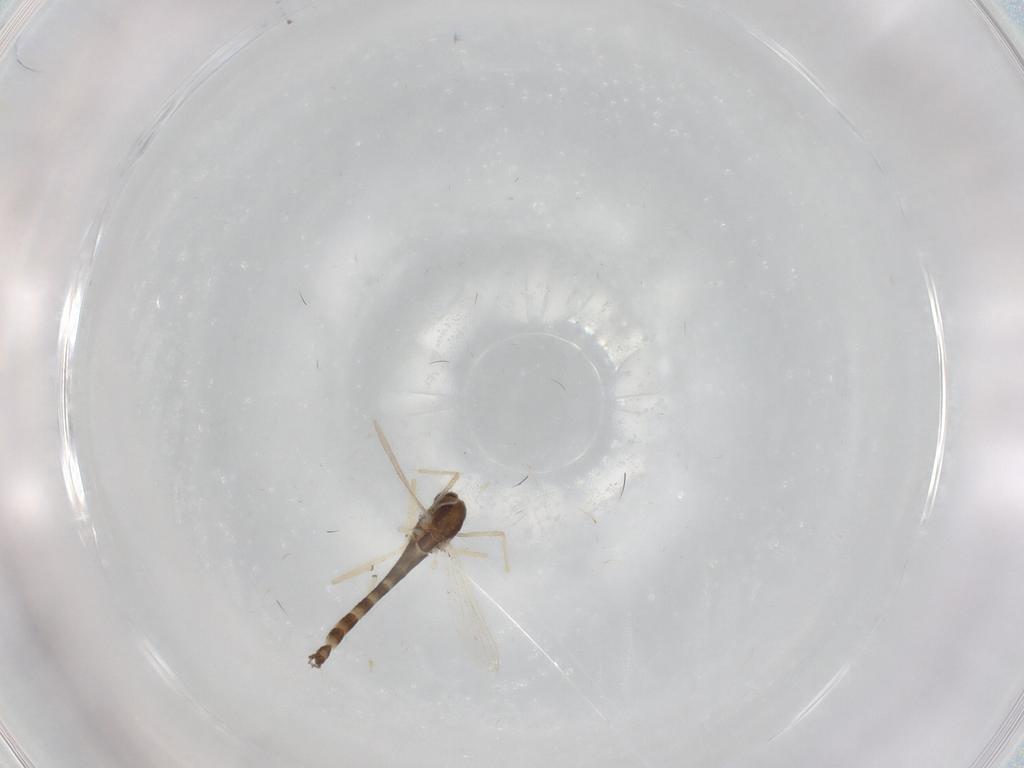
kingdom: Animalia
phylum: Arthropoda
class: Insecta
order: Diptera
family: Chironomidae
